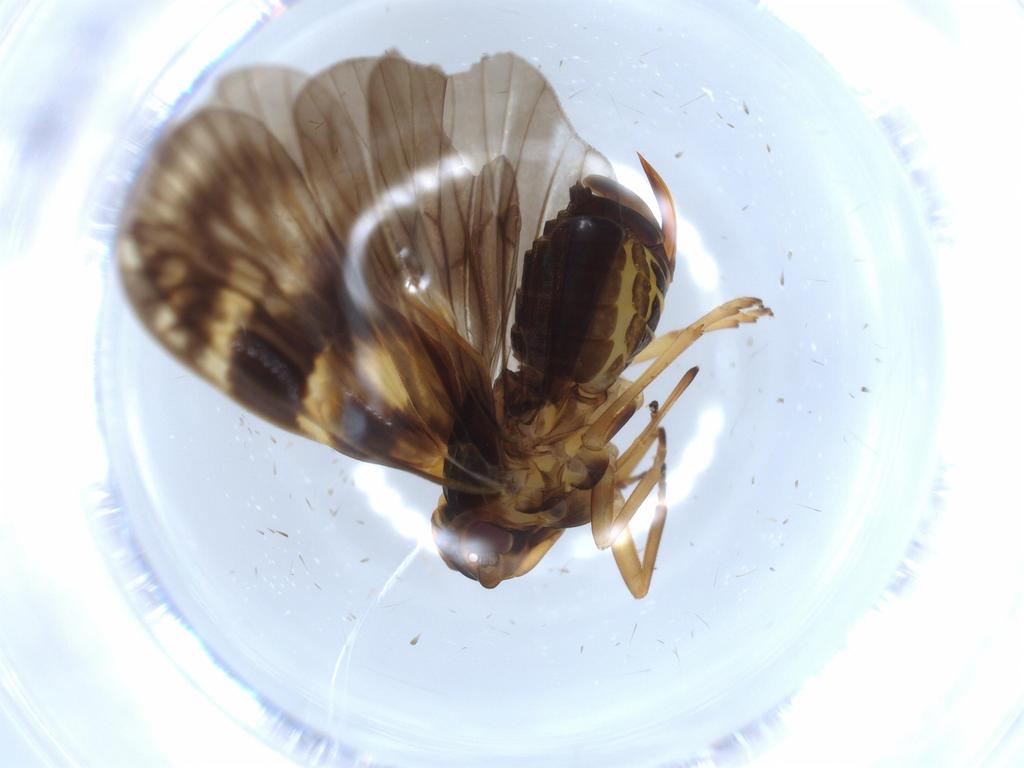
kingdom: Animalia
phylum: Arthropoda
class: Insecta
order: Hemiptera
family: Cixiidae
